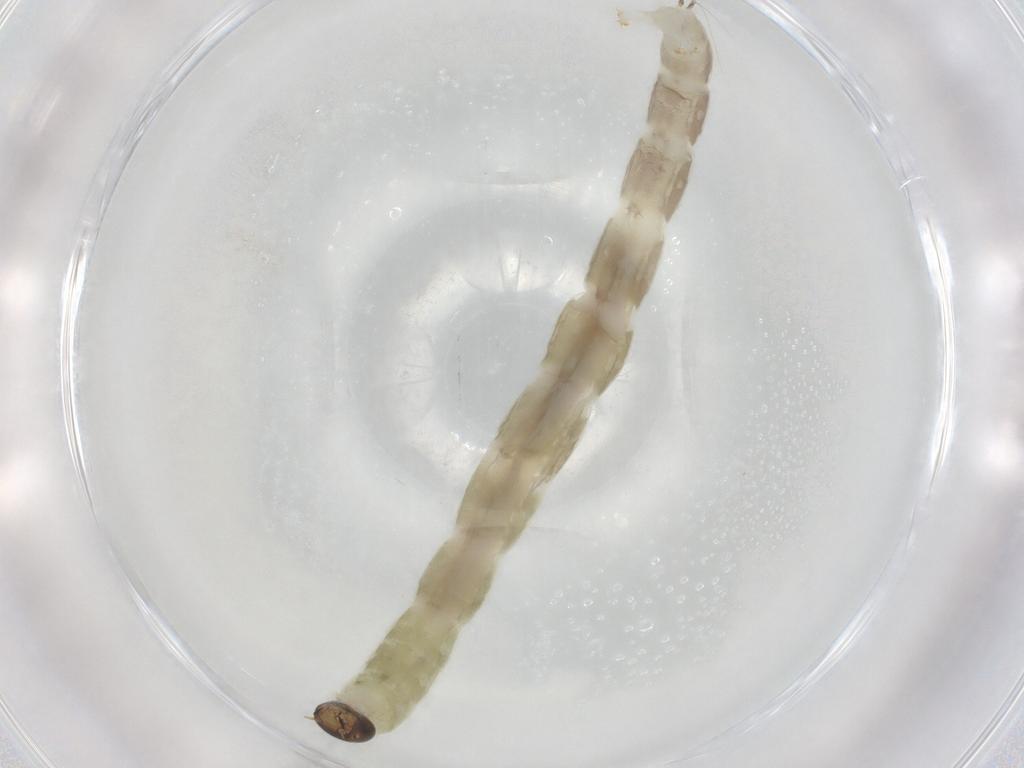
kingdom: Animalia
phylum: Arthropoda
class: Insecta
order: Diptera
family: Chironomidae
